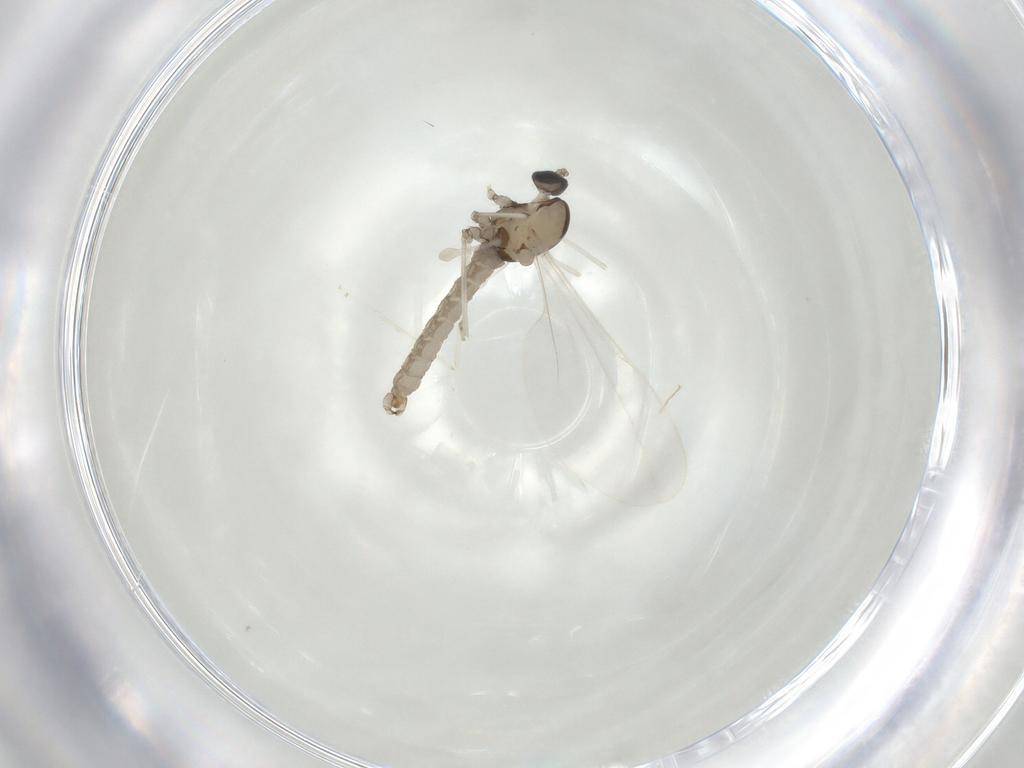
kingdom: Animalia
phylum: Arthropoda
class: Insecta
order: Diptera
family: Cecidomyiidae
